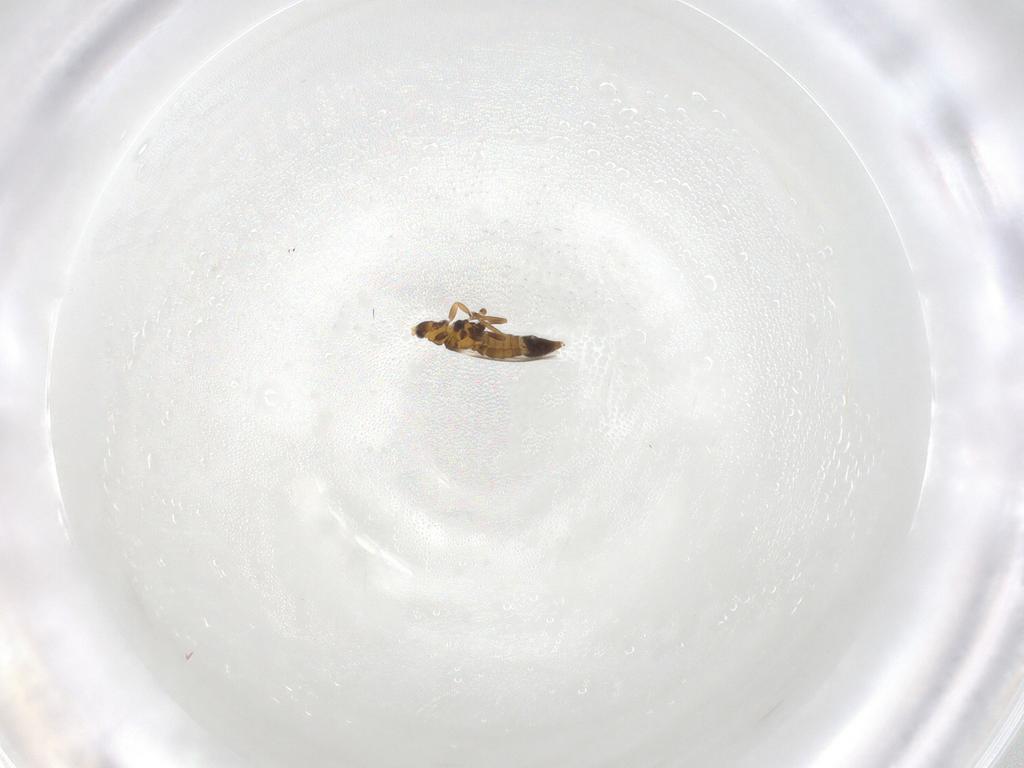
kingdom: Animalia
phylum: Arthropoda
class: Insecta
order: Thysanoptera
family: Thripidae
